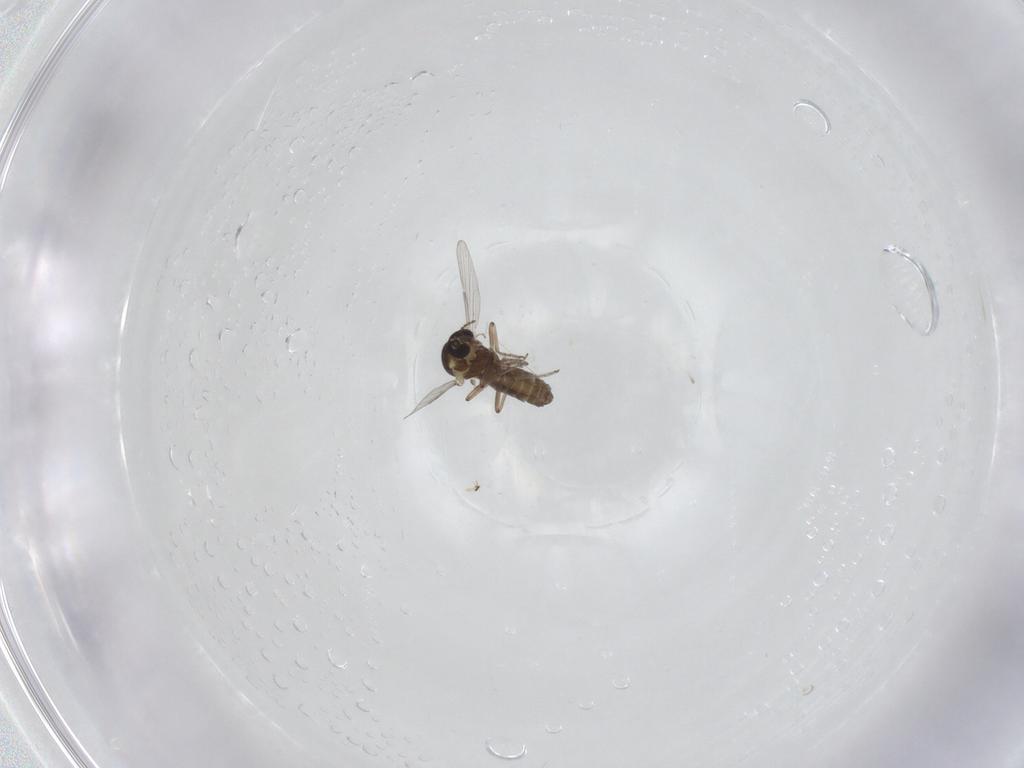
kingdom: Animalia
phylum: Arthropoda
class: Insecta
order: Diptera
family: Ceratopogonidae
